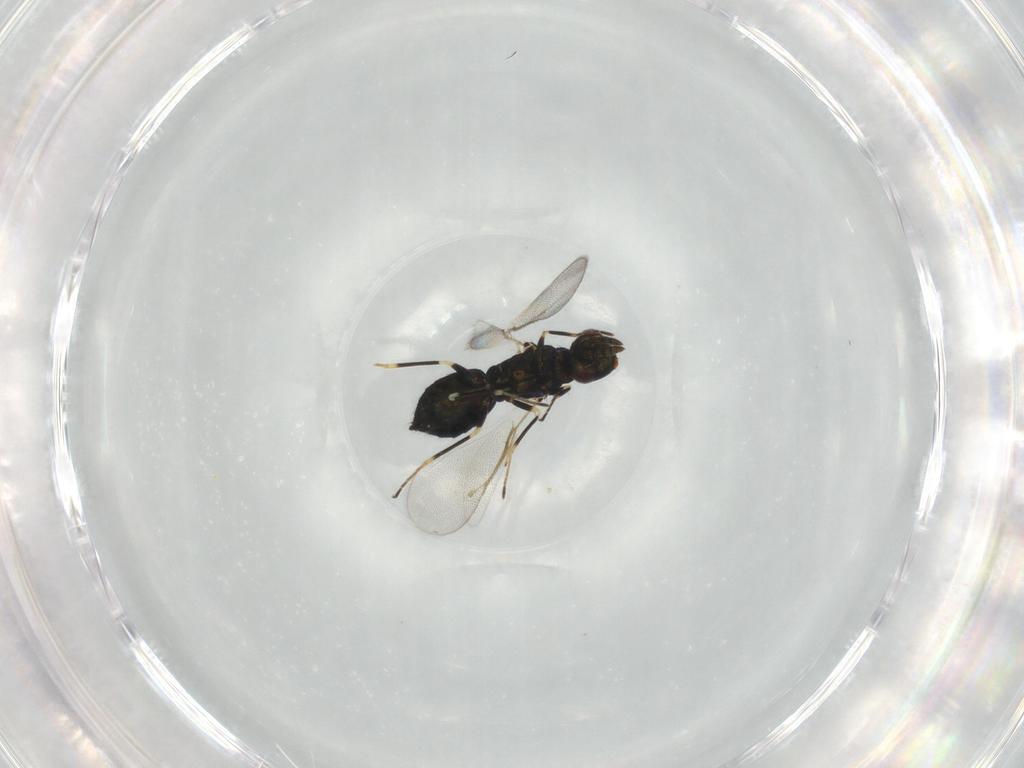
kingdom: Animalia
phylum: Arthropoda
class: Insecta
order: Hymenoptera
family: Eulophidae
